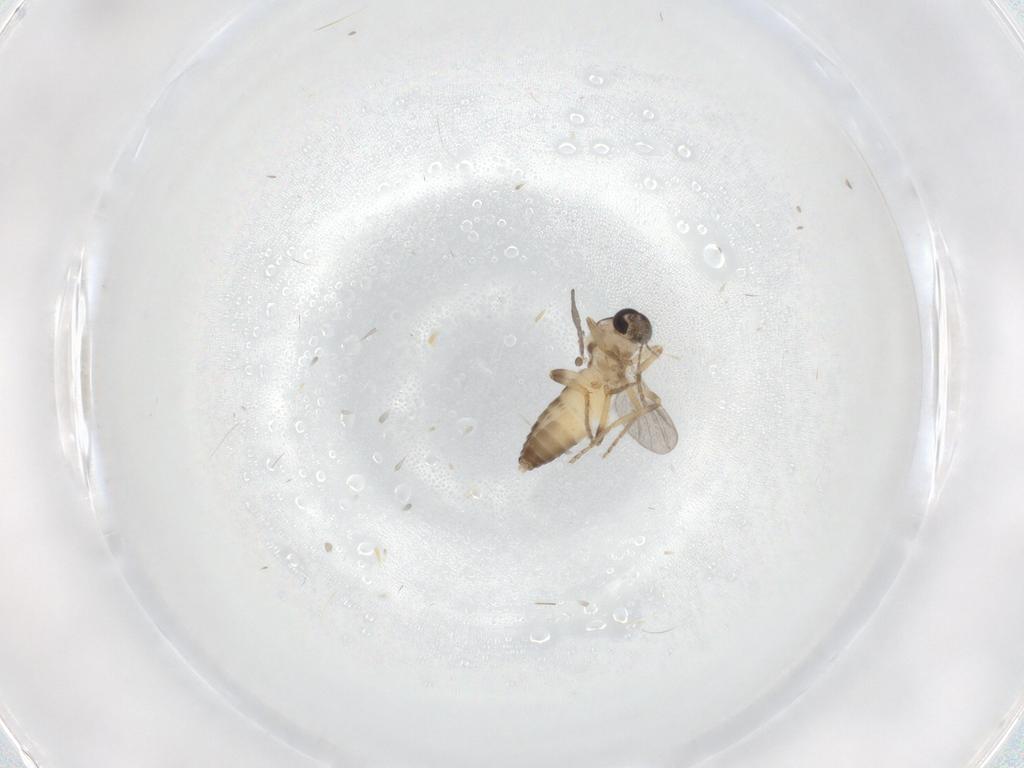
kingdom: Animalia
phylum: Arthropoda
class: Insecta
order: Diptera
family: Ceratopogonidae
